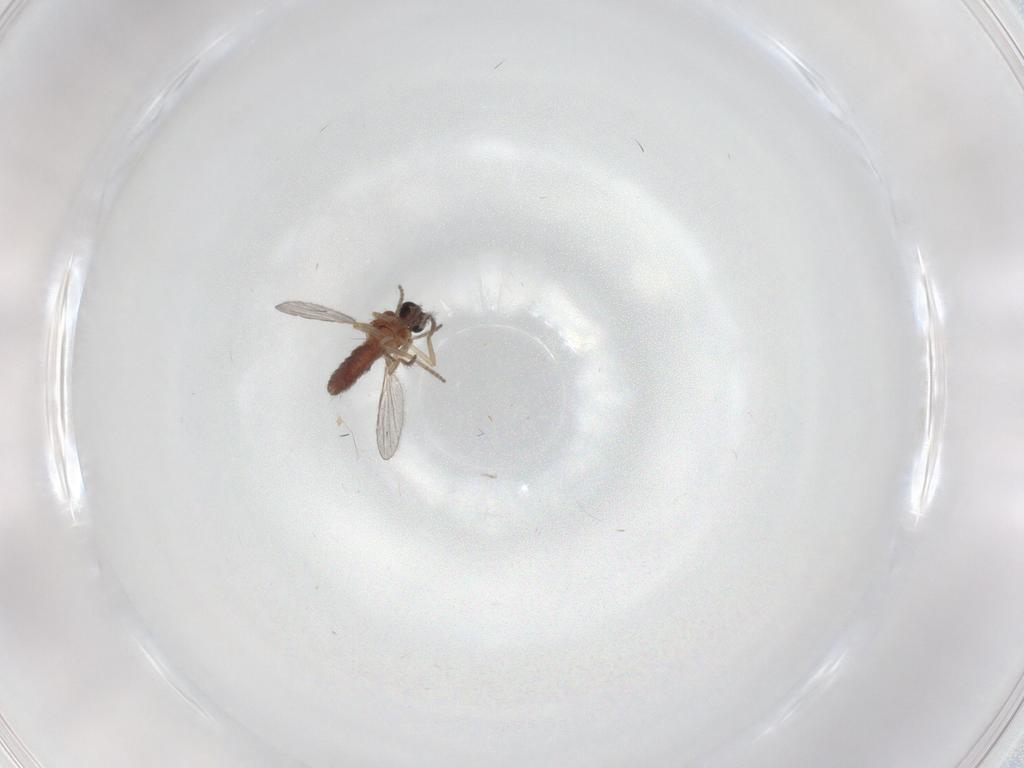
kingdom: Animalia
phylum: Arthropoda
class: Insecta
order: Diptera
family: Ceratopogonidae
